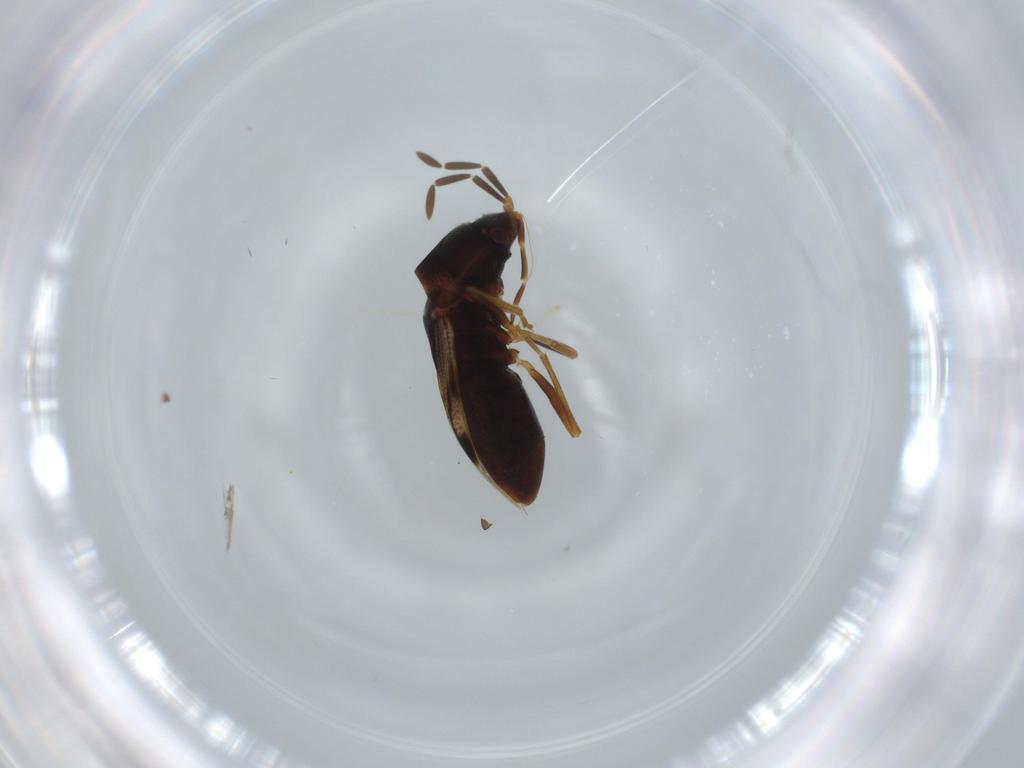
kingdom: Animalia
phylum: Arthropoda
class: Insecta
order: Hemiptera
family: Rhyparochromidae
